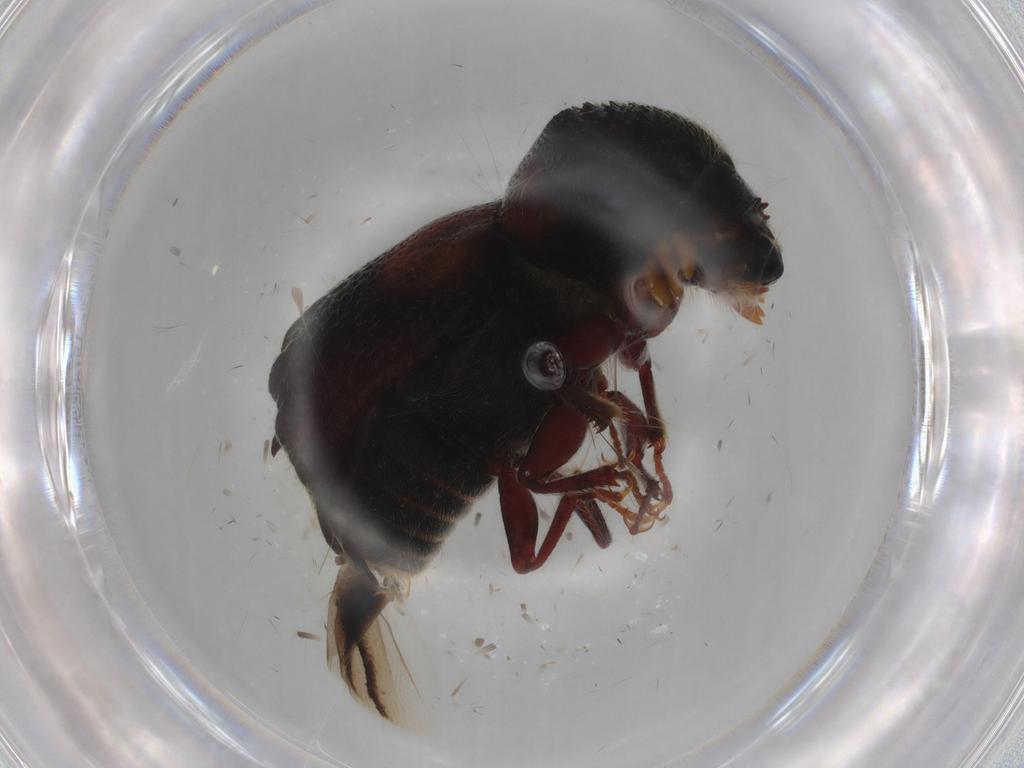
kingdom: Animalia
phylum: Arthropoda
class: Insecta
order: Coleoptera
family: Bostrichidae
